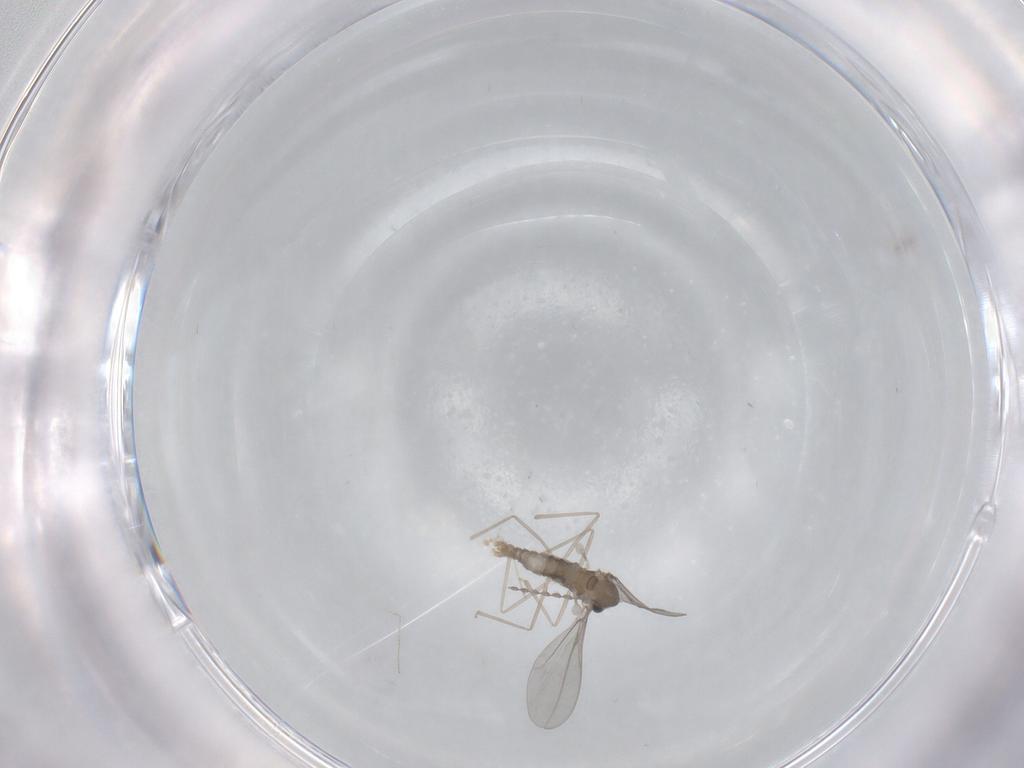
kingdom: Animalia
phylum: Arthropoda
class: Insecta
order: Diptera
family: Cecidomyiidae
